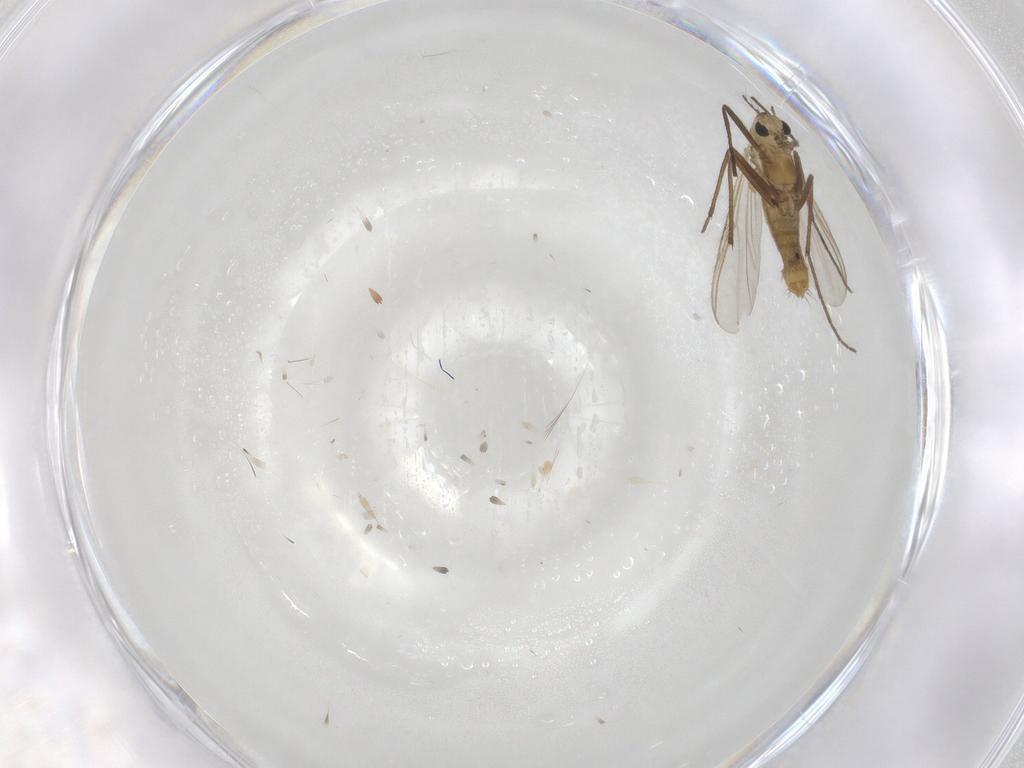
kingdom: Animalia
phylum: Arthropoda
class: Insecta
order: Diptera
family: Chironomidae
